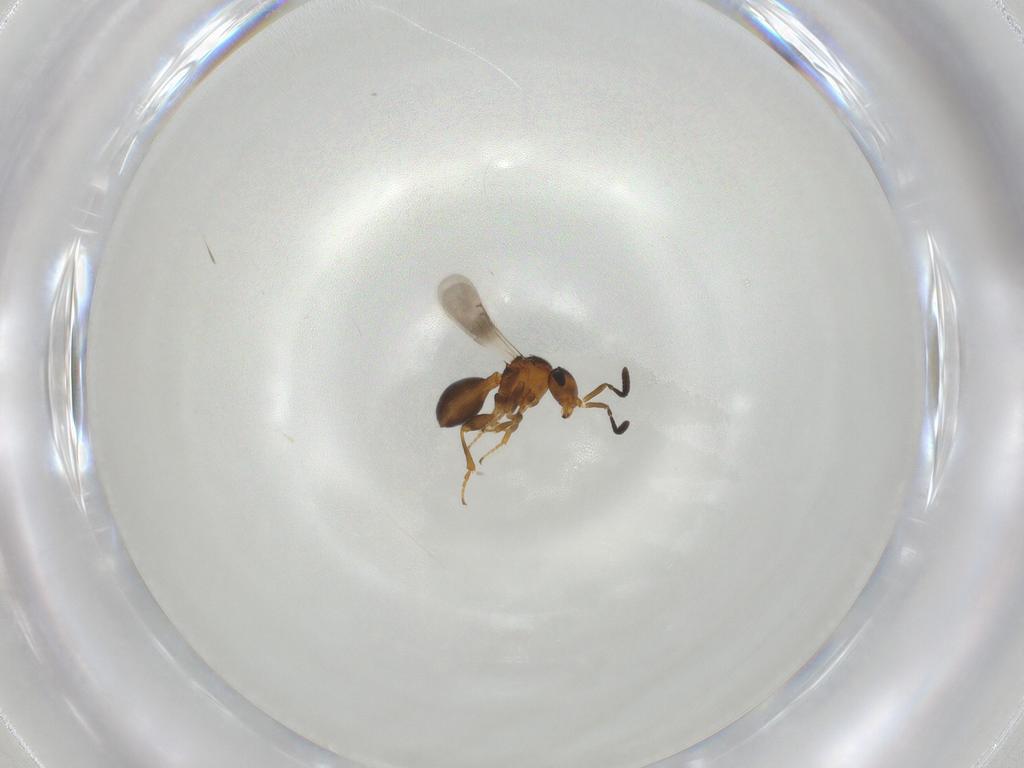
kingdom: Animalia
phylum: Arthropoda
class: Insecta
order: Hymenoptera
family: Scelionidae
